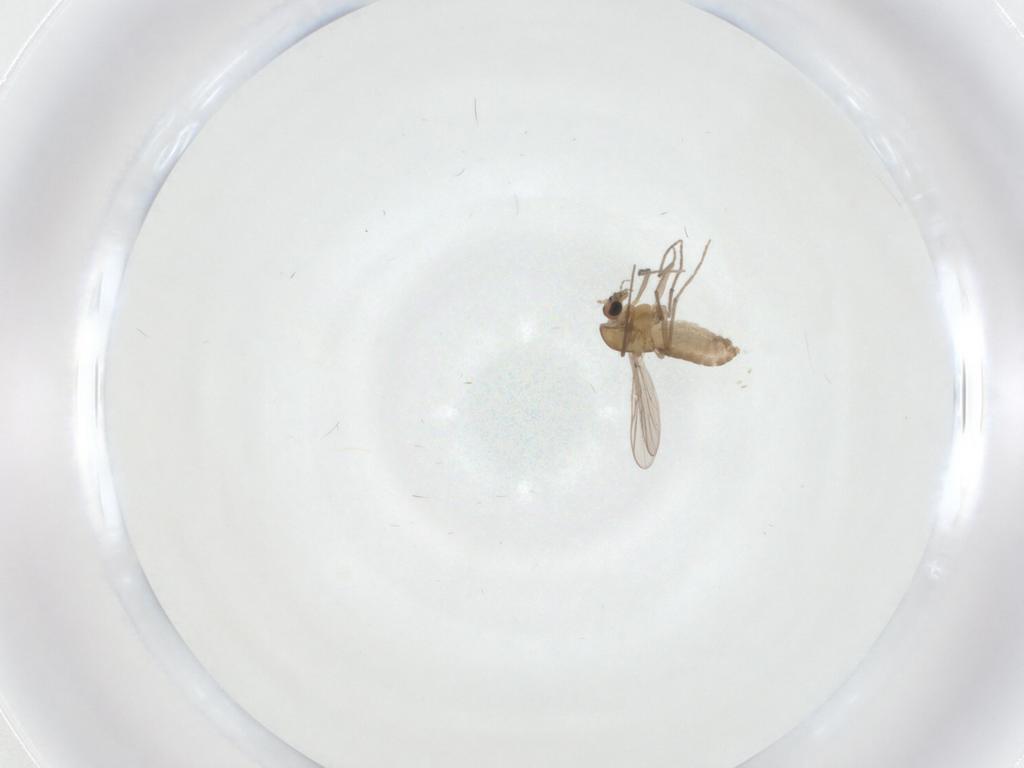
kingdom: Animalia
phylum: Arthropoda
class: Insecta
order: Diptera
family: Chironomidae
